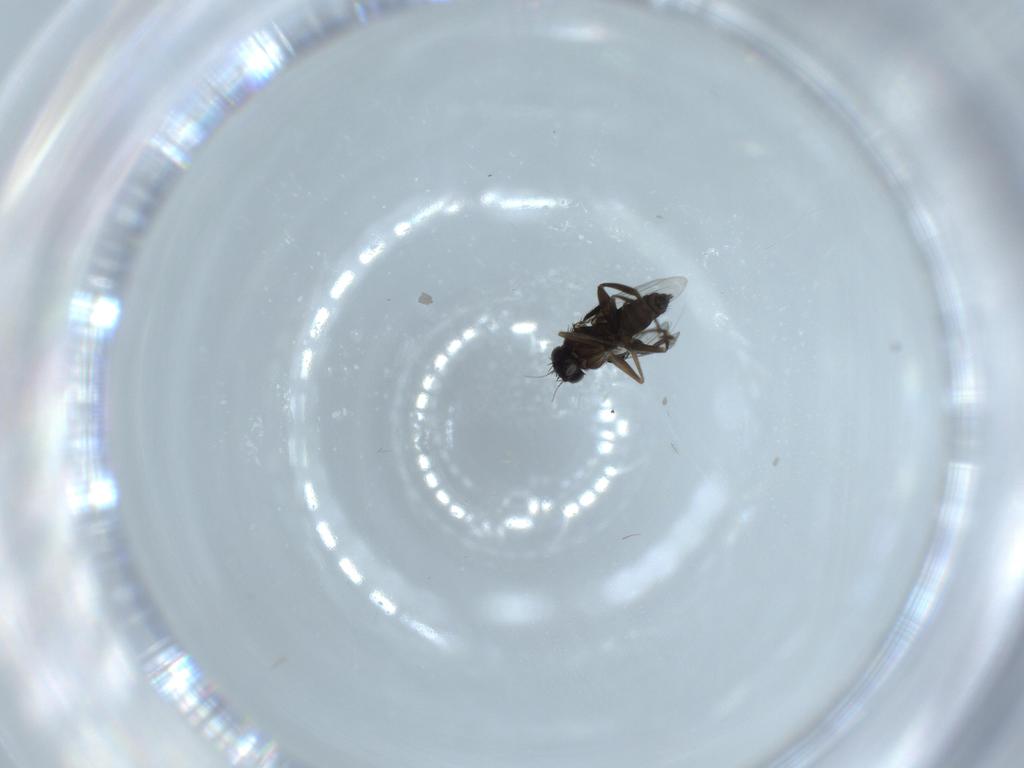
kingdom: Animalia
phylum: Arthropoda
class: Insecta
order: Diptera
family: Phoridae
